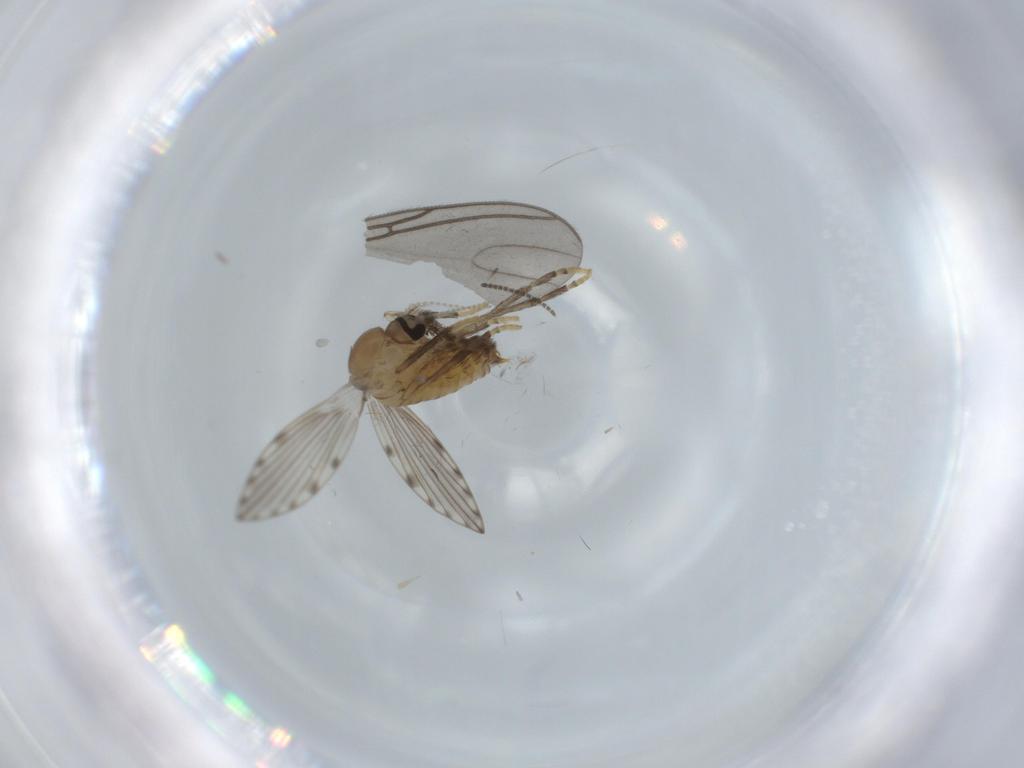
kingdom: Animalia
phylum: Arthropoda
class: Insecta
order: Diptera
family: Psychodidae
